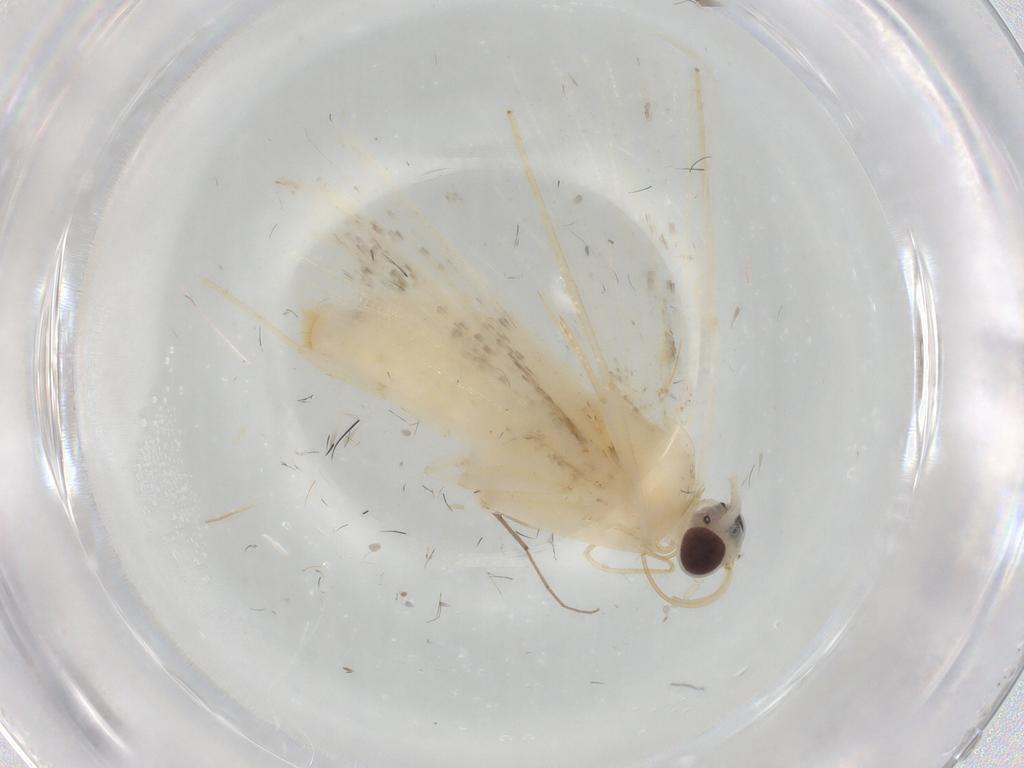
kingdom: Animalia
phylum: Arthropoda
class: Insecta
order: Lepidoptera
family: Crambidae
